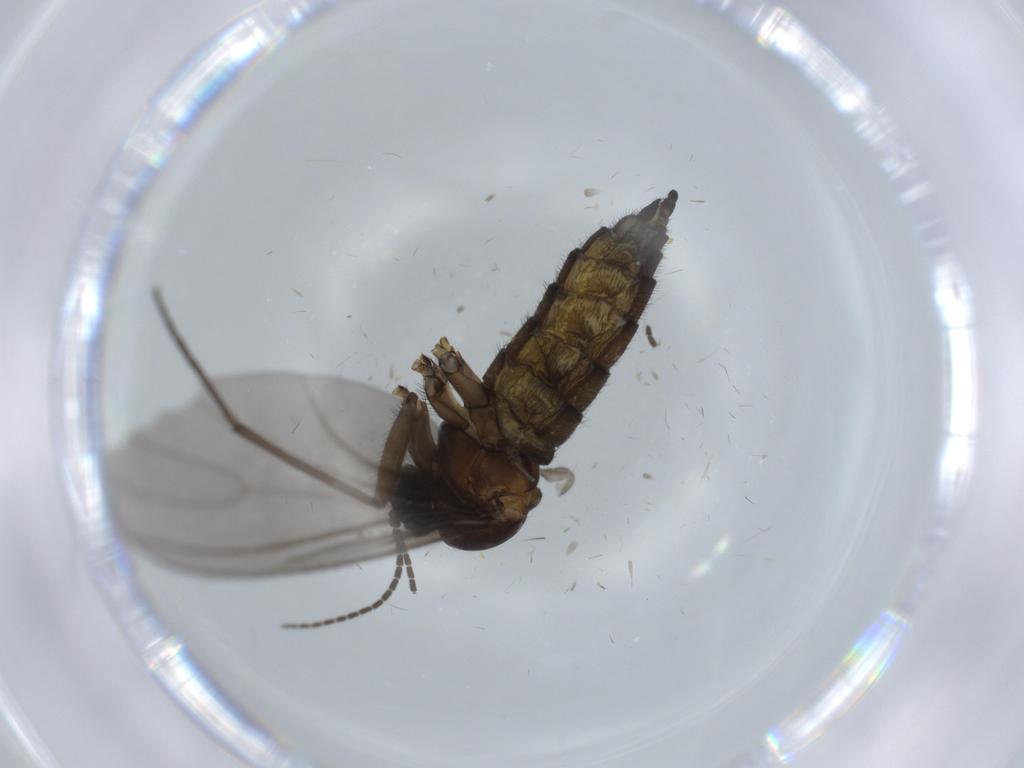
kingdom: Animalia
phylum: Arthropoda
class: Insecta
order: Diptera
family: Sciaridae
